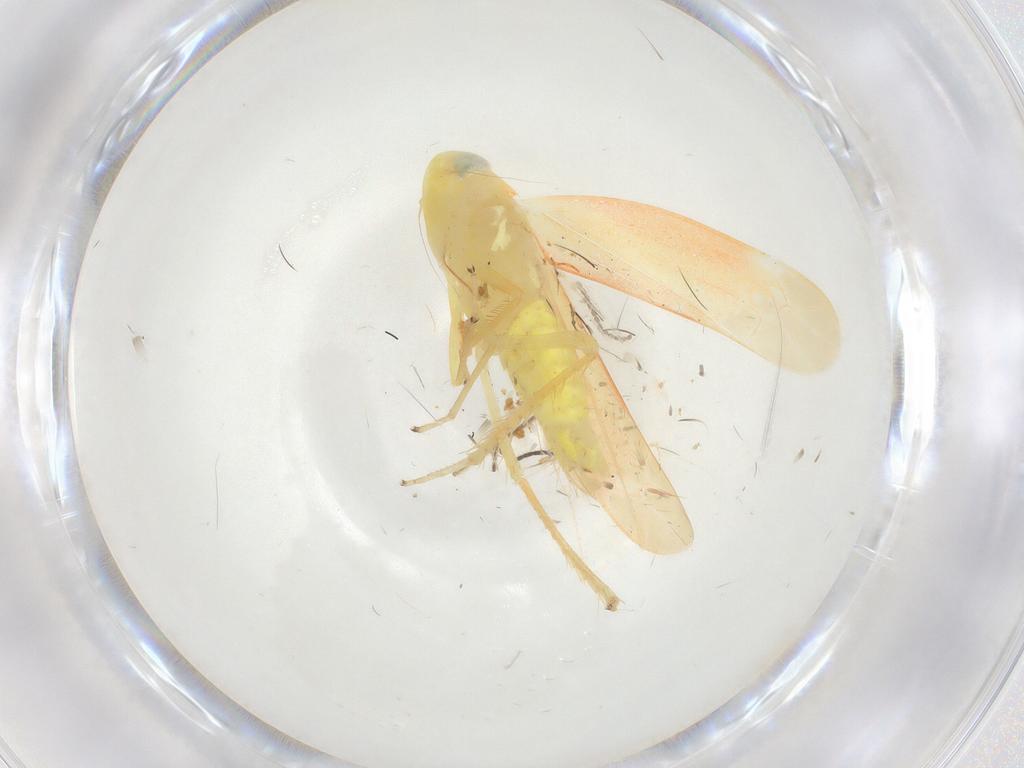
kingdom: Animalia
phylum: Arthropoda
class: Insecta
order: Hemiptera
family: Cicadellidae
